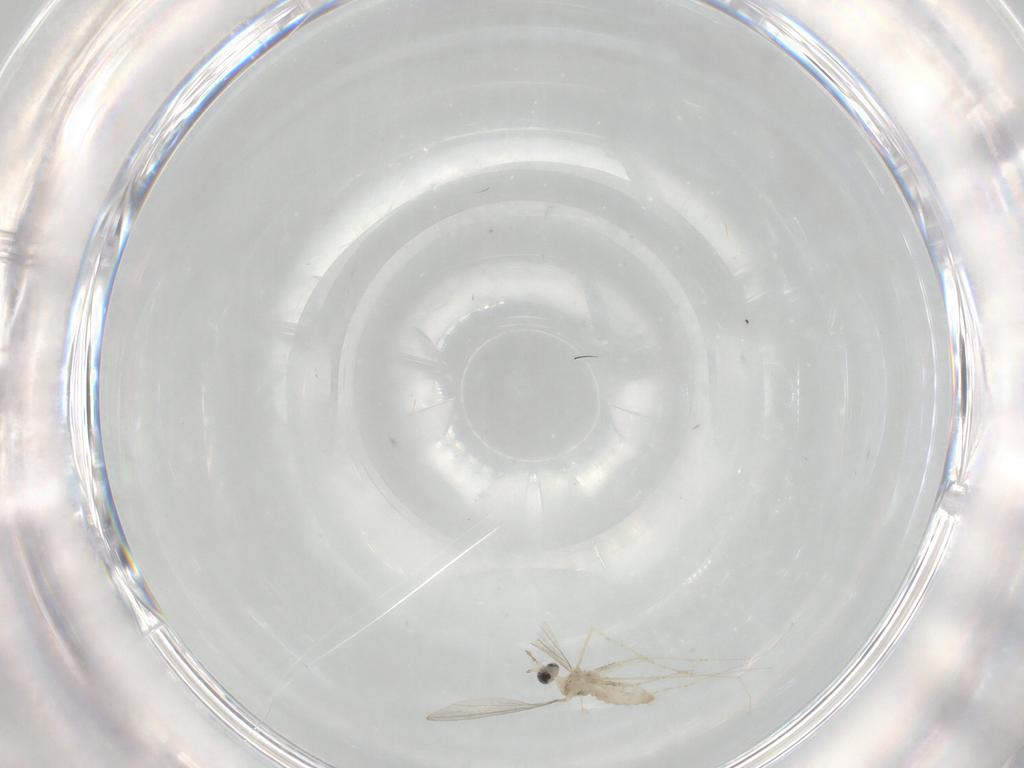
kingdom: Animalia
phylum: Arthropoda
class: Insecta
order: Diptera
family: Cecidomyiidae
